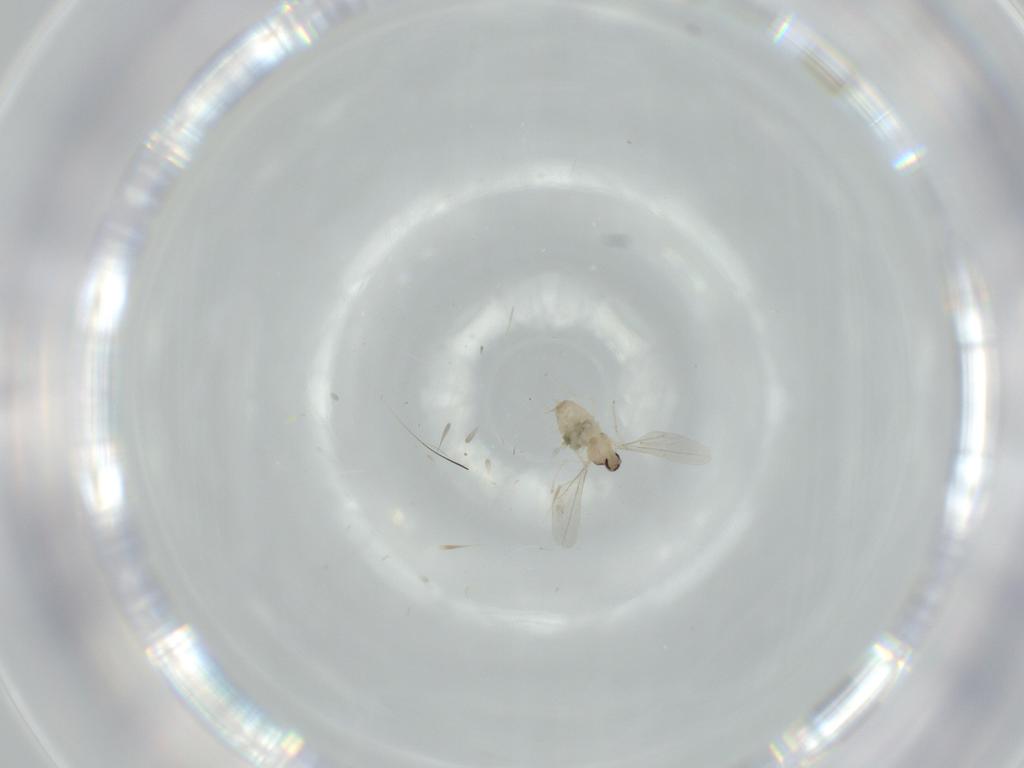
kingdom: Animalia
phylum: Arthropoda
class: Insecta
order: Diptera
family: Cecidomyiidae
